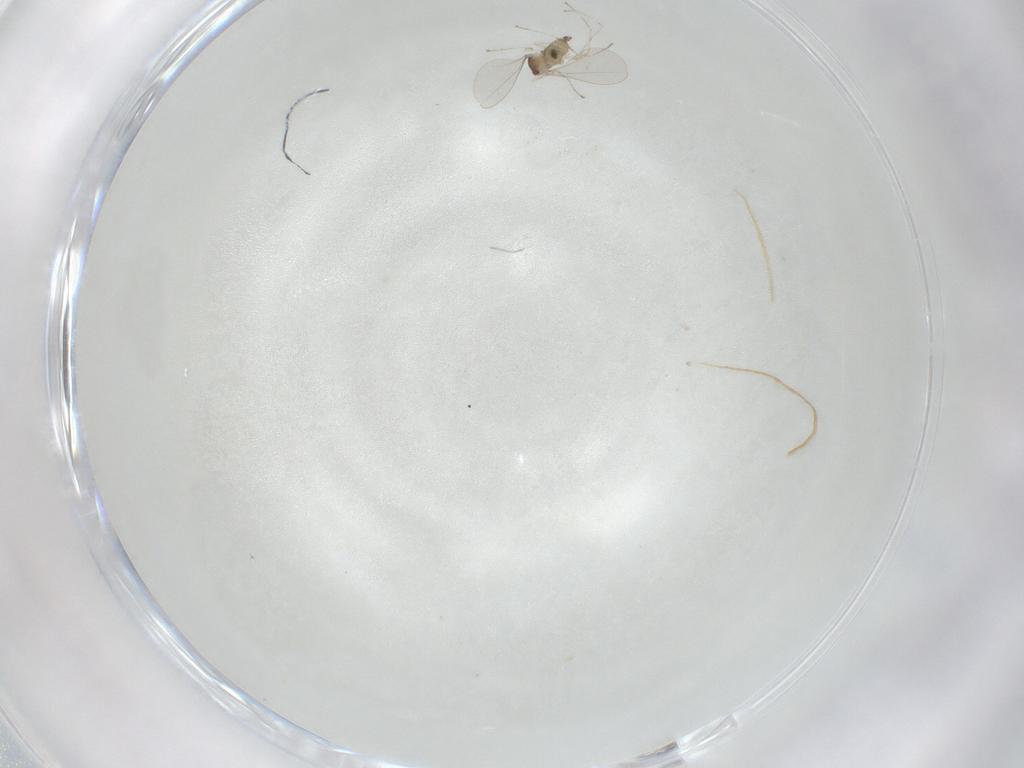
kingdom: Animalia
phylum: Arthropoda
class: Insecta
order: Diptera
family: Cecidomyiidae
